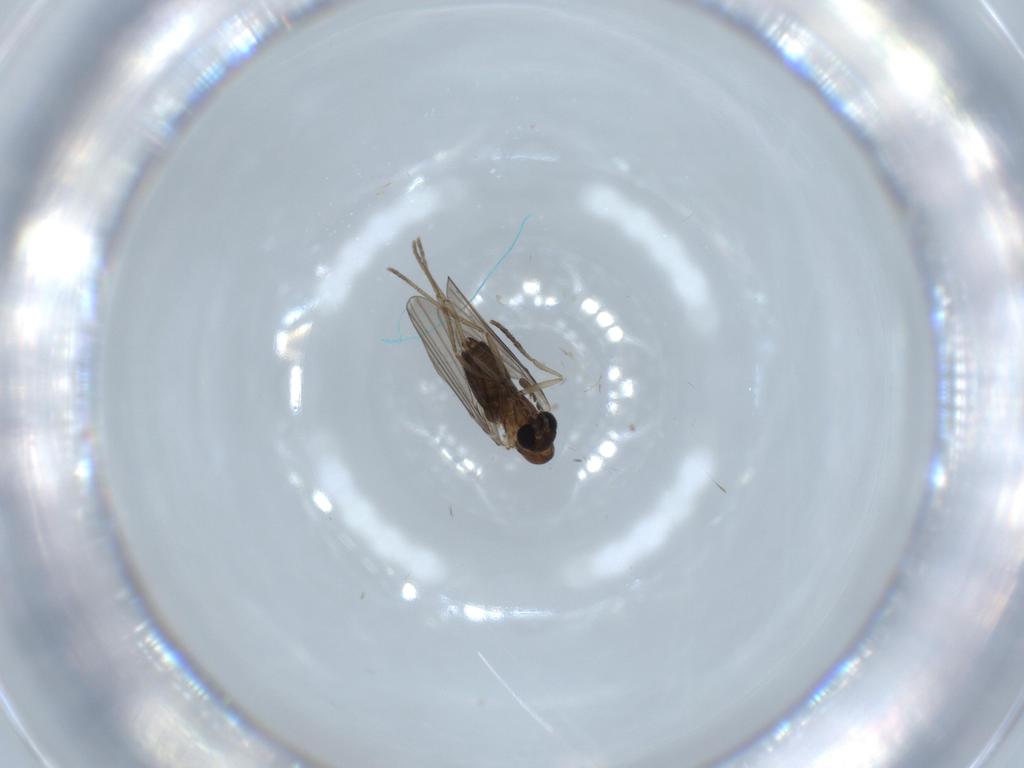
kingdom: Animalia
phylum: Arthropoda
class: Insecta
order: Diptera
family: Psychodidae
